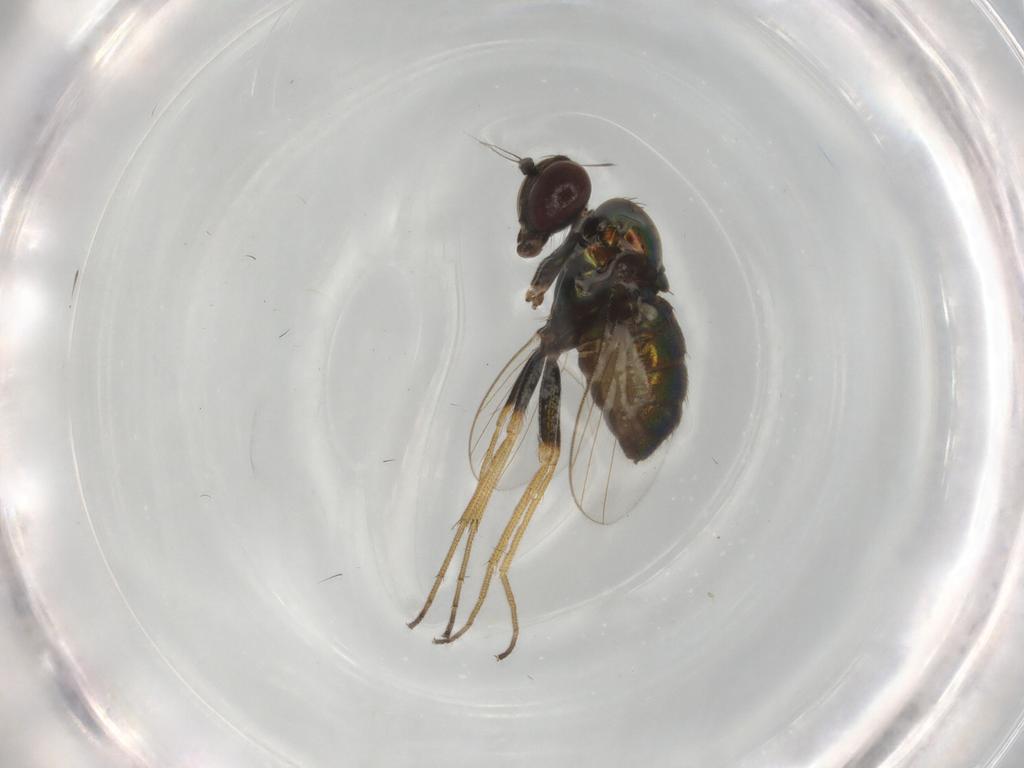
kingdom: Animalia
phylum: Arthropoda
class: Insecta
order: Diptera
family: Dolichopodidae
